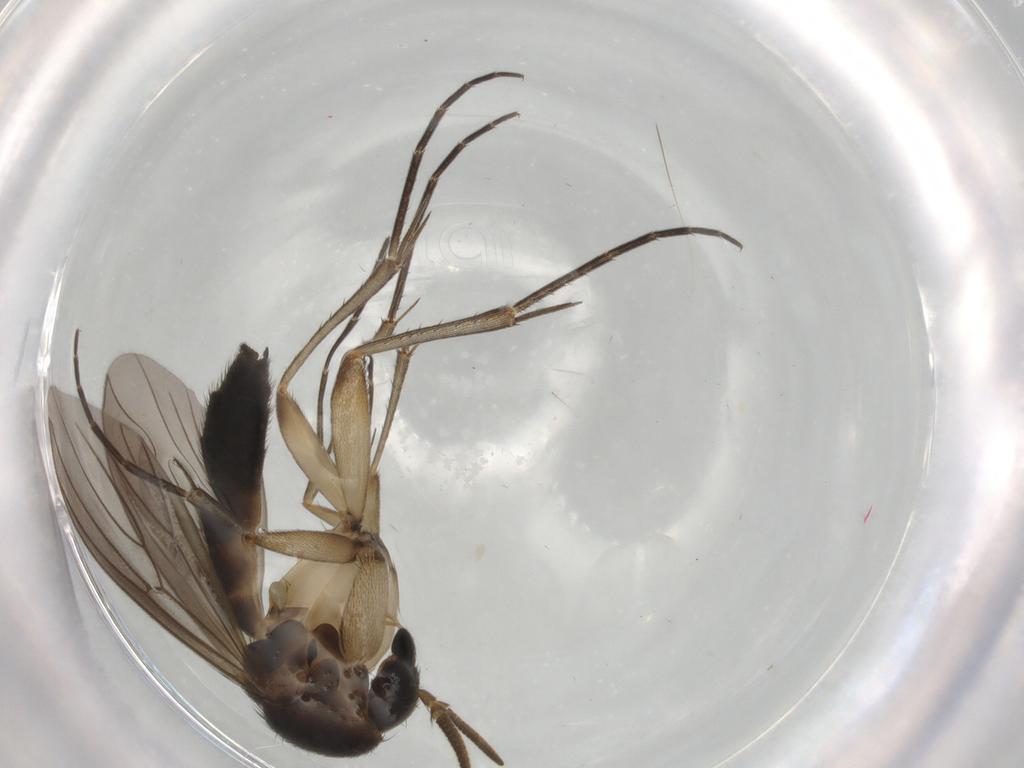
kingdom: Animalia
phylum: Arthropoda
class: Insecta
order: Diptera
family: Mycetophilidae
